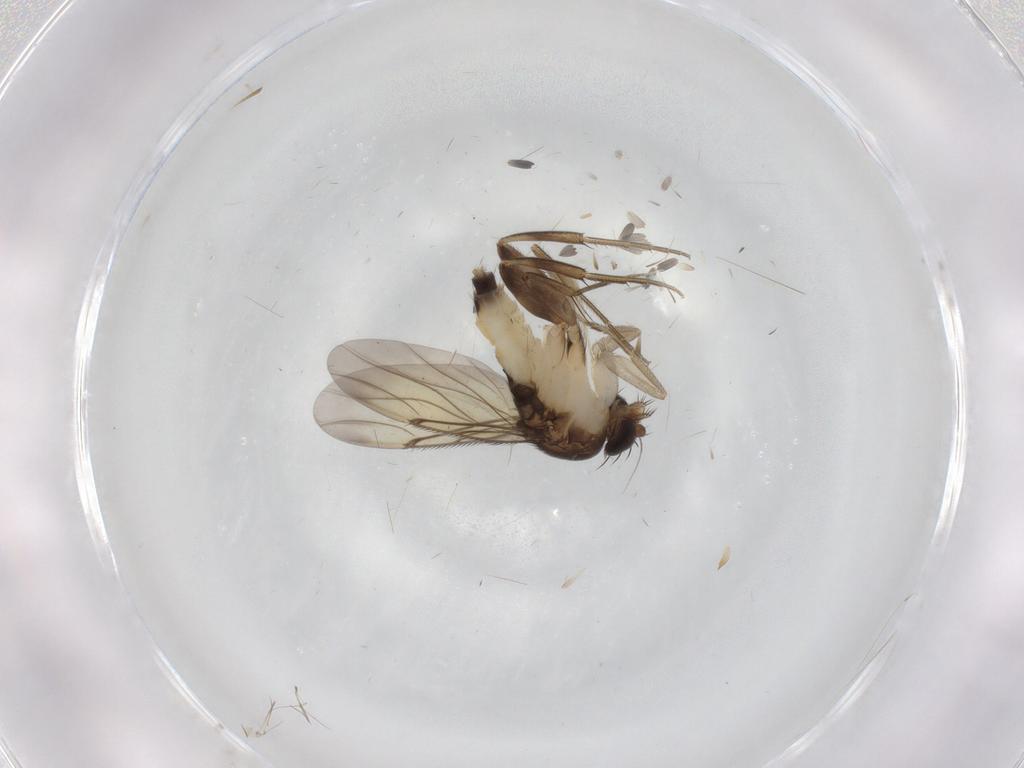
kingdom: Animalia
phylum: Arthropoda
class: Insecta
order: Diptera
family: Phoridae
